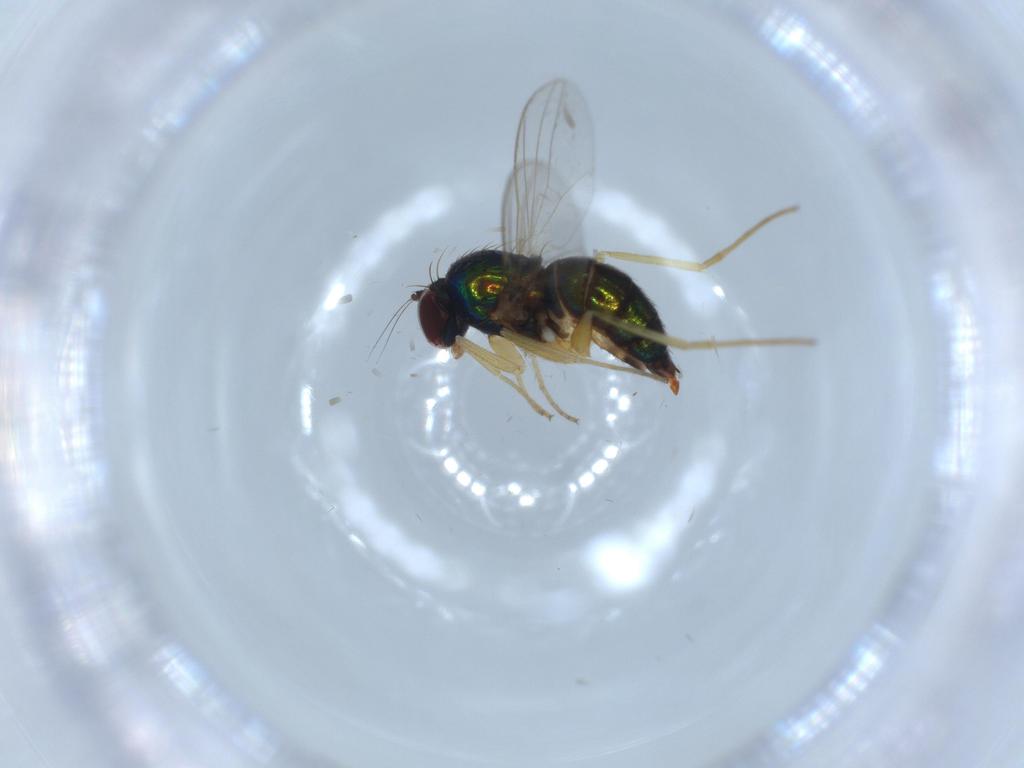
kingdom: Animalia
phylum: Arthropoda
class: Insecta
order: Diptera
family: Dolichopodidae
